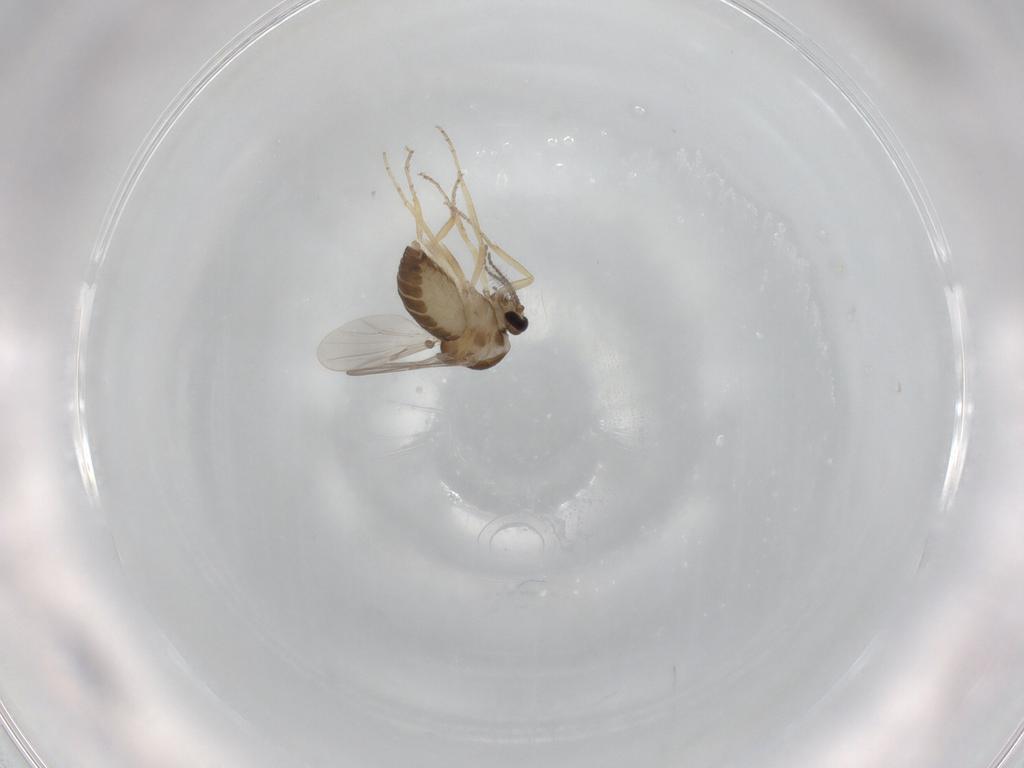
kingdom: Animalia
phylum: Arthropoda
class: Insecta
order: Diptera
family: Ceratopogonidae
